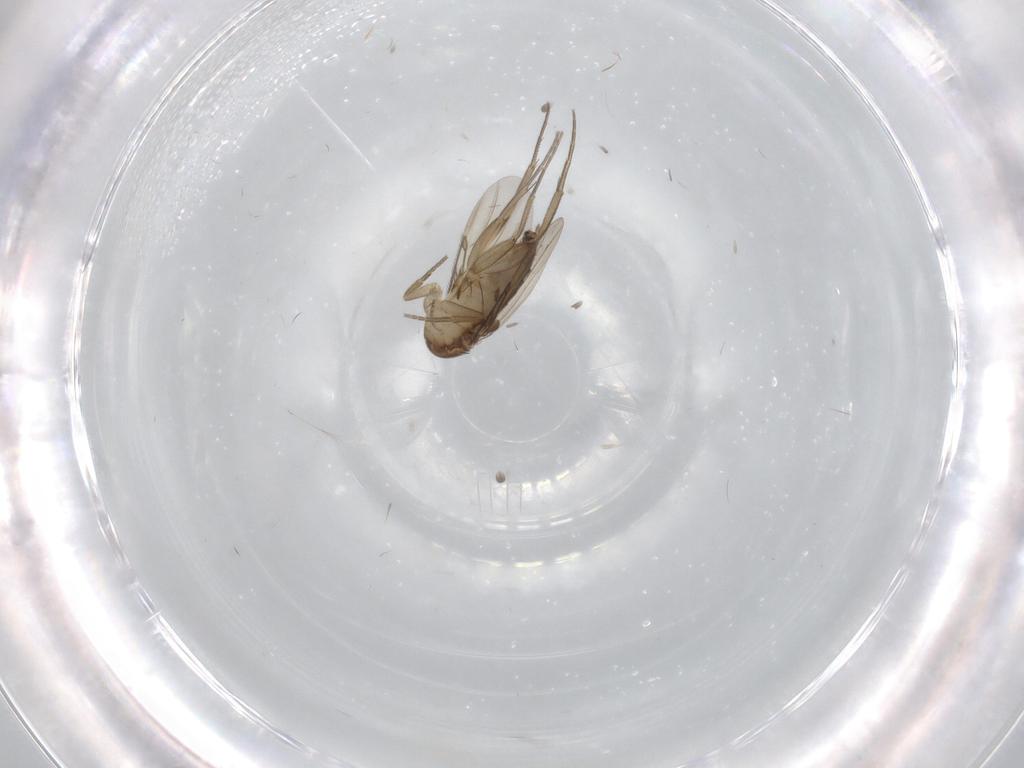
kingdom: Animalia
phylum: Arthropoda
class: Insecta
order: Diptera
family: Phoridae
